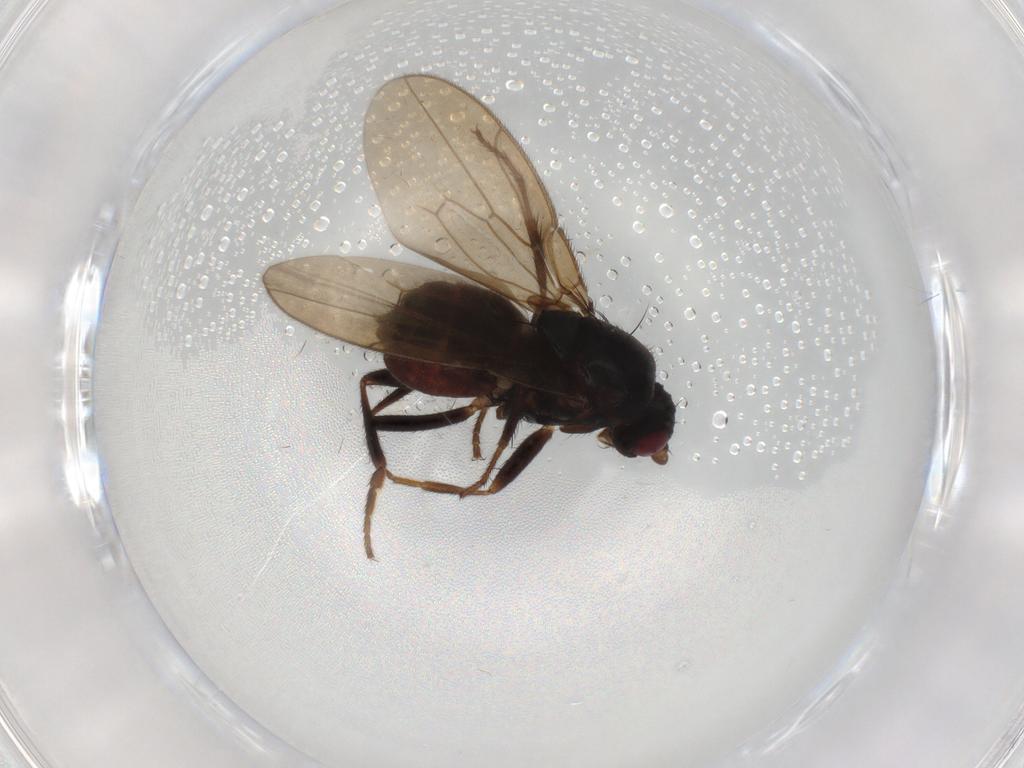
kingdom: Animalia
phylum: Arthropoda
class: Insecta
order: Diptera
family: Sphaeroceridae
